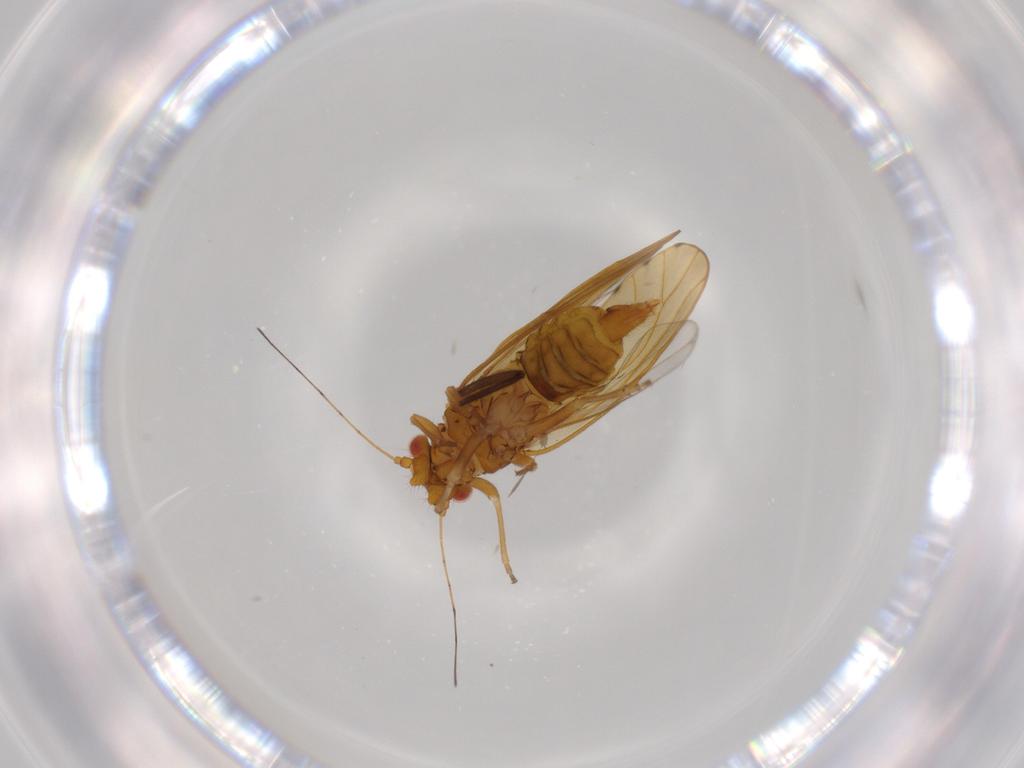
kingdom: Animalia
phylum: Arthropoda
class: Insecta
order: Hemiptera
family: Psylloidea_incertae_sedis
